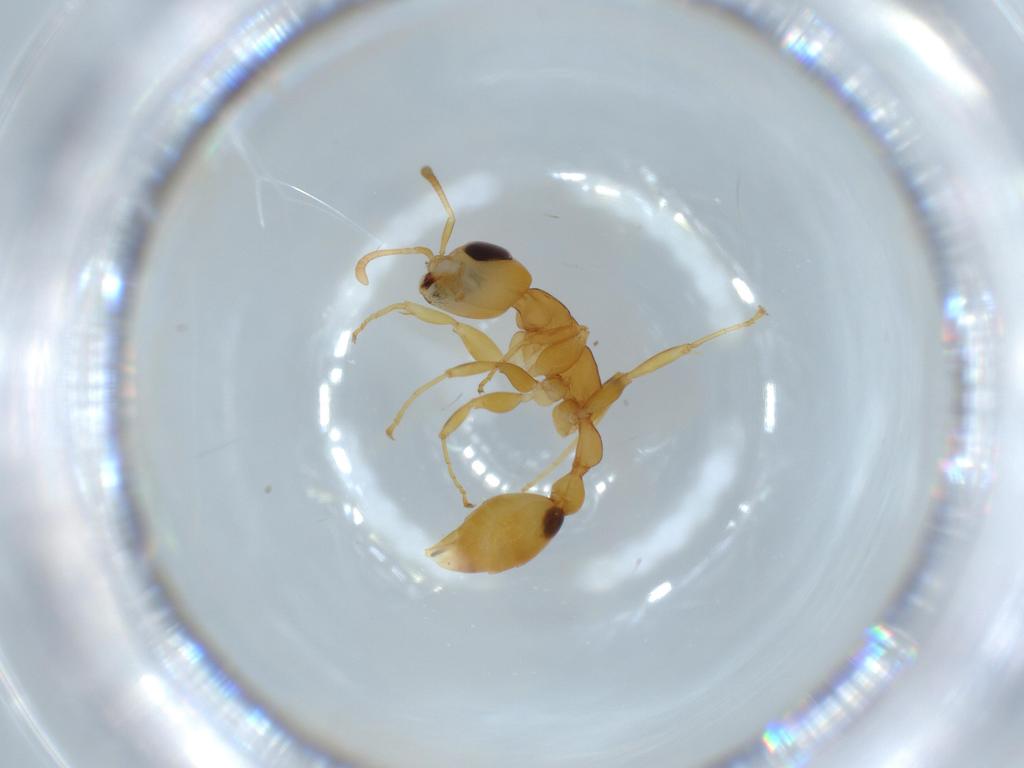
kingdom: Animalia
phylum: Arthropoda
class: Insecta
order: Hymenoptera
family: Formicidae
